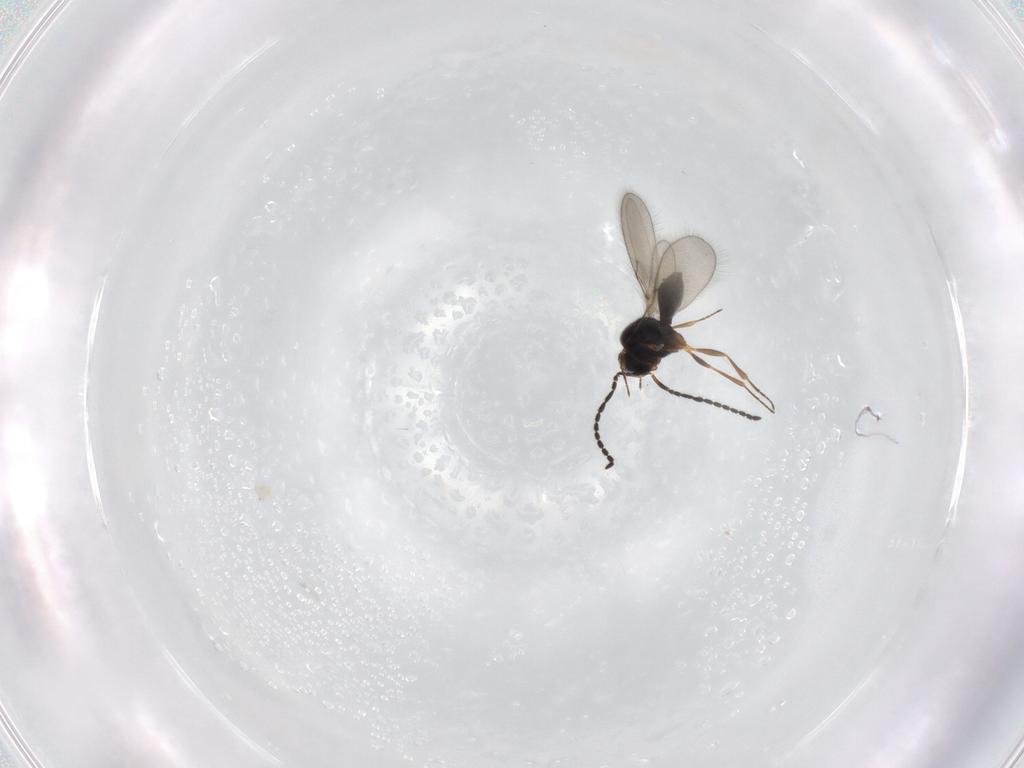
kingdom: Animalia
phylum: Arthropoda
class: Insecta
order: Hymenoptera
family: Scelionidae
